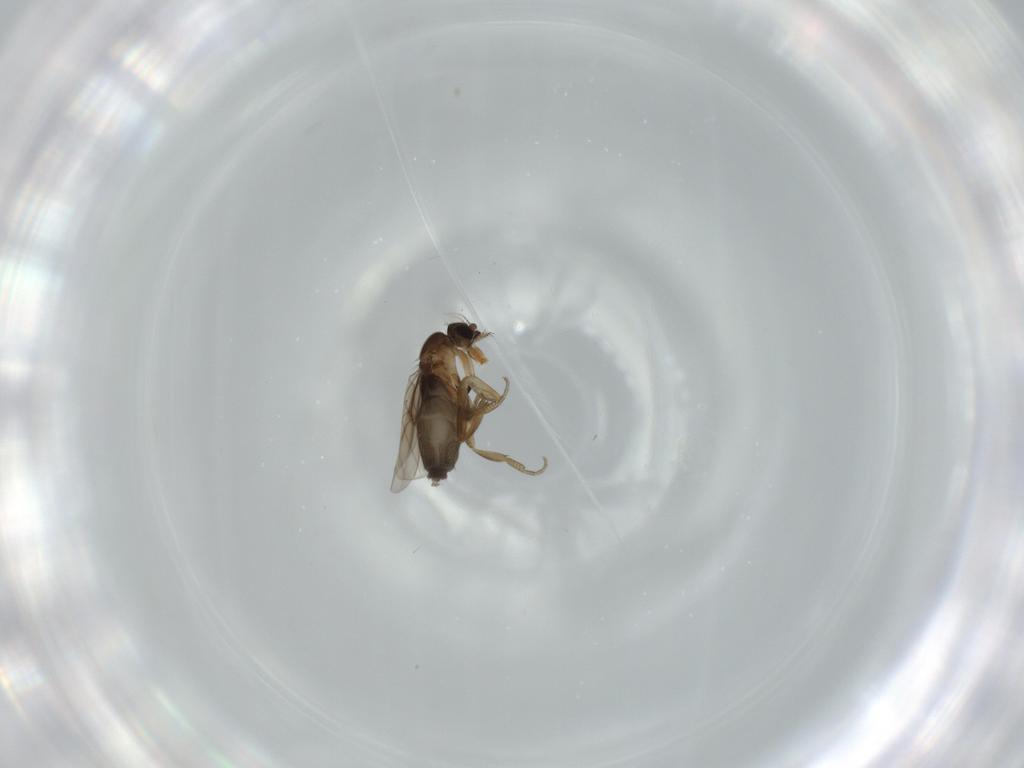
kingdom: Animalia
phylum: Arthropoda
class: Insecta
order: Diptera
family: Phoridae
